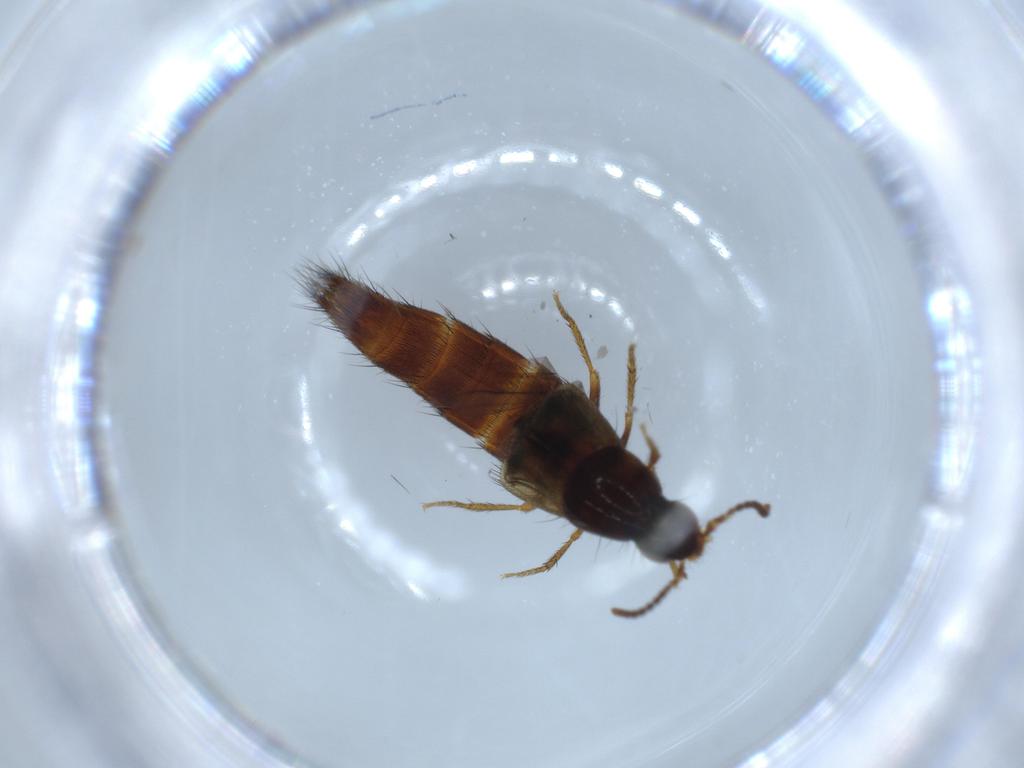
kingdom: Animalia
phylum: Arthropoda
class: Insecta
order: Coleoptera
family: Staphylinidae
